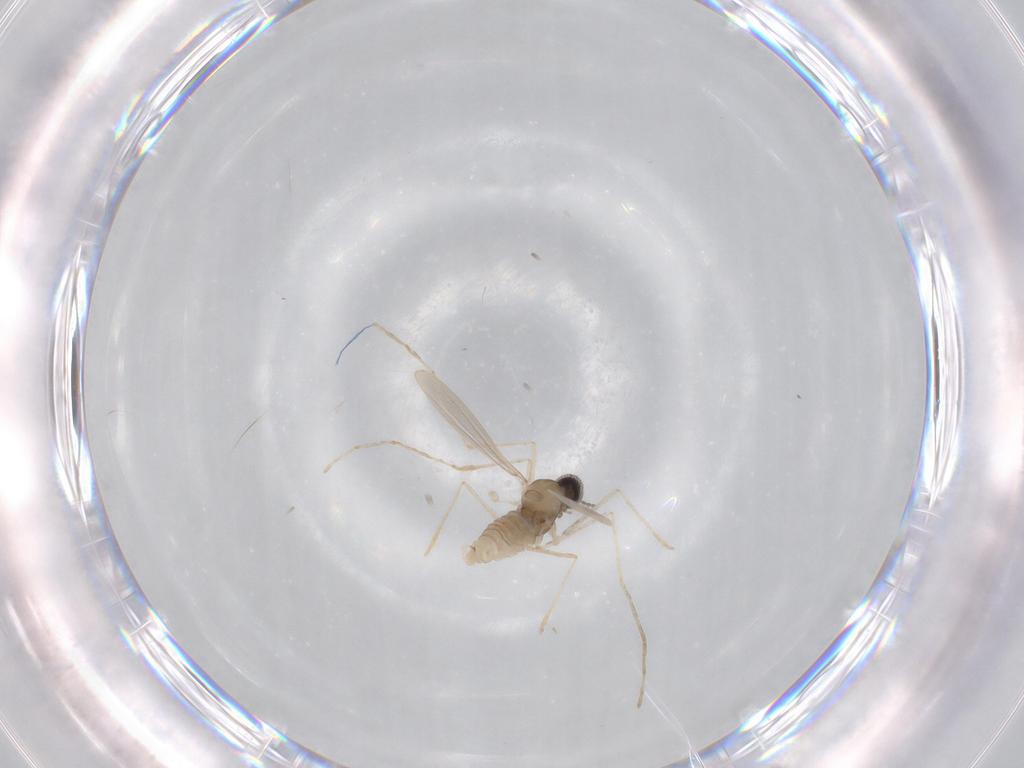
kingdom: Animalia
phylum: Arthropoda
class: Insecta
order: Diptera
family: Cecidomyiidae
